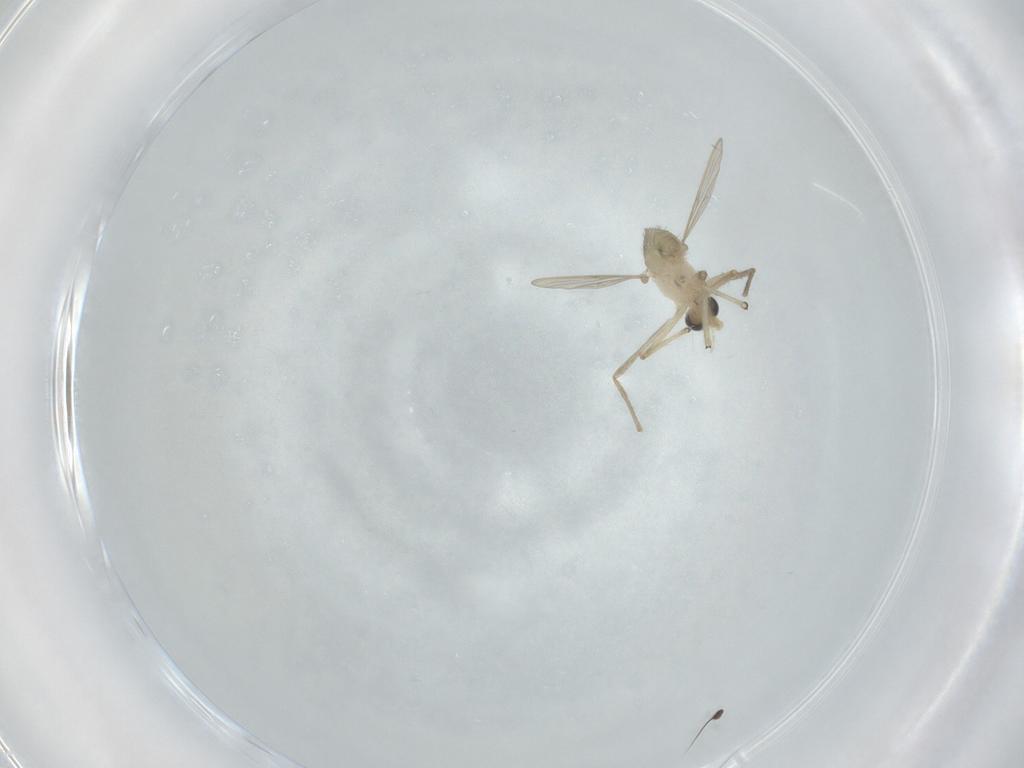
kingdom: Animalia
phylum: Arthropoda
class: Insecta
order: Diptera
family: Chironomidae
